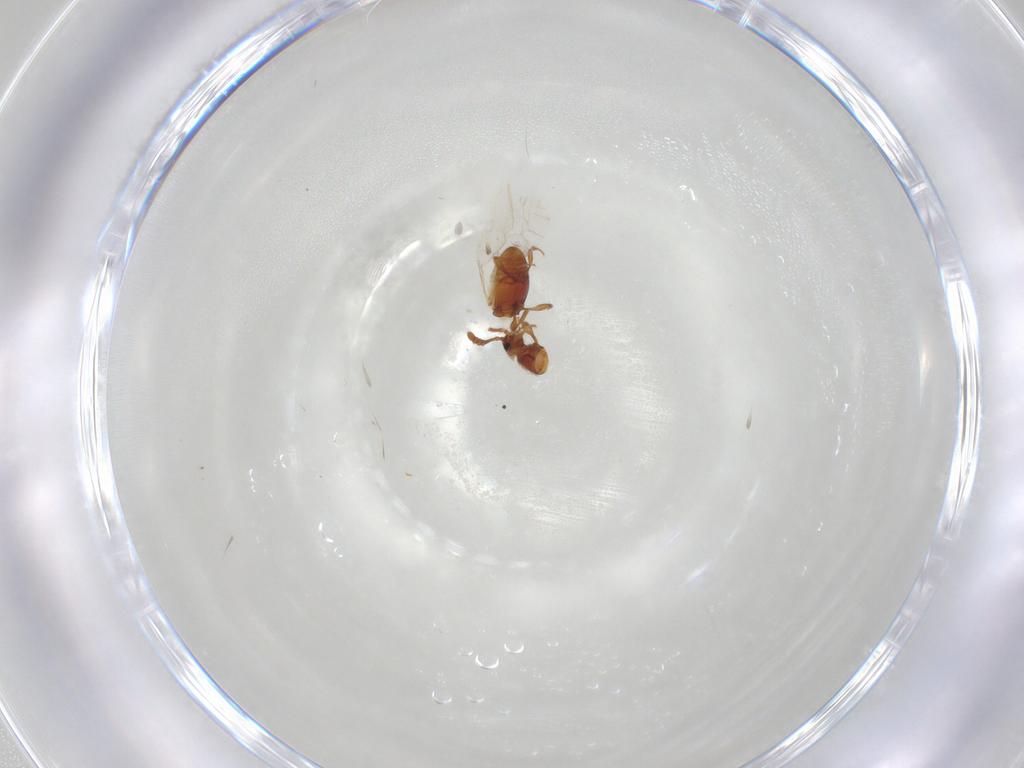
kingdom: Animalia
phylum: Arthropoda
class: Insecta
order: Coleoptera
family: Staphylinidae
